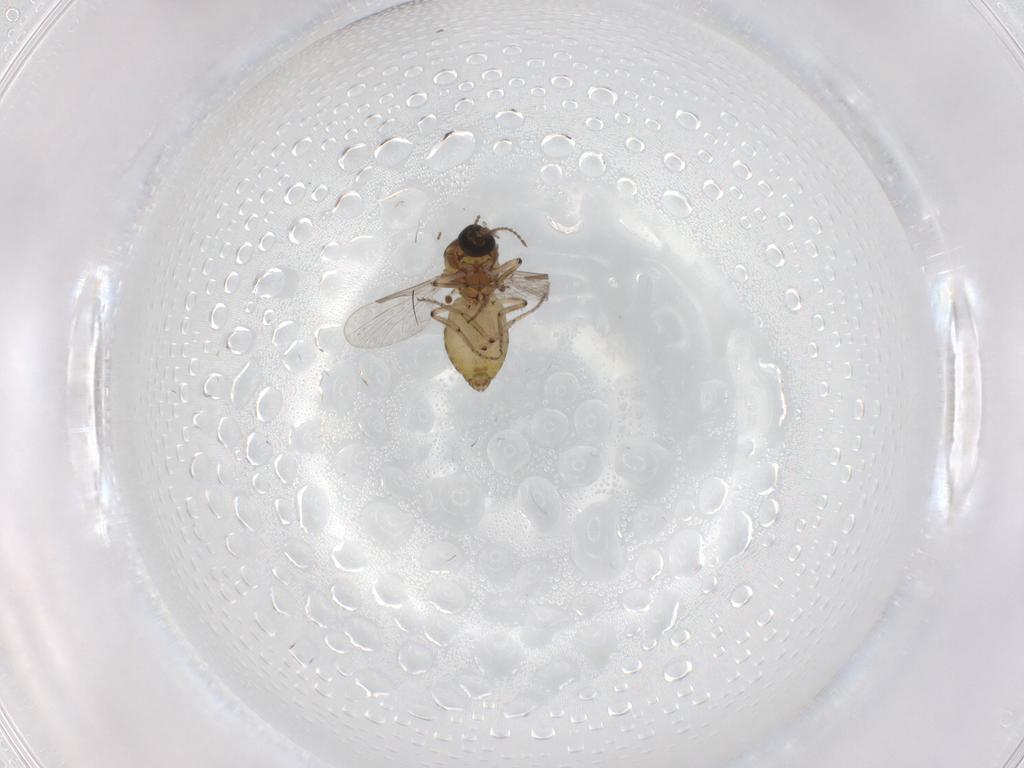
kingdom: Animalia
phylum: Arthropoda
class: Insecta
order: Diptera
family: Ceratopogonidae
